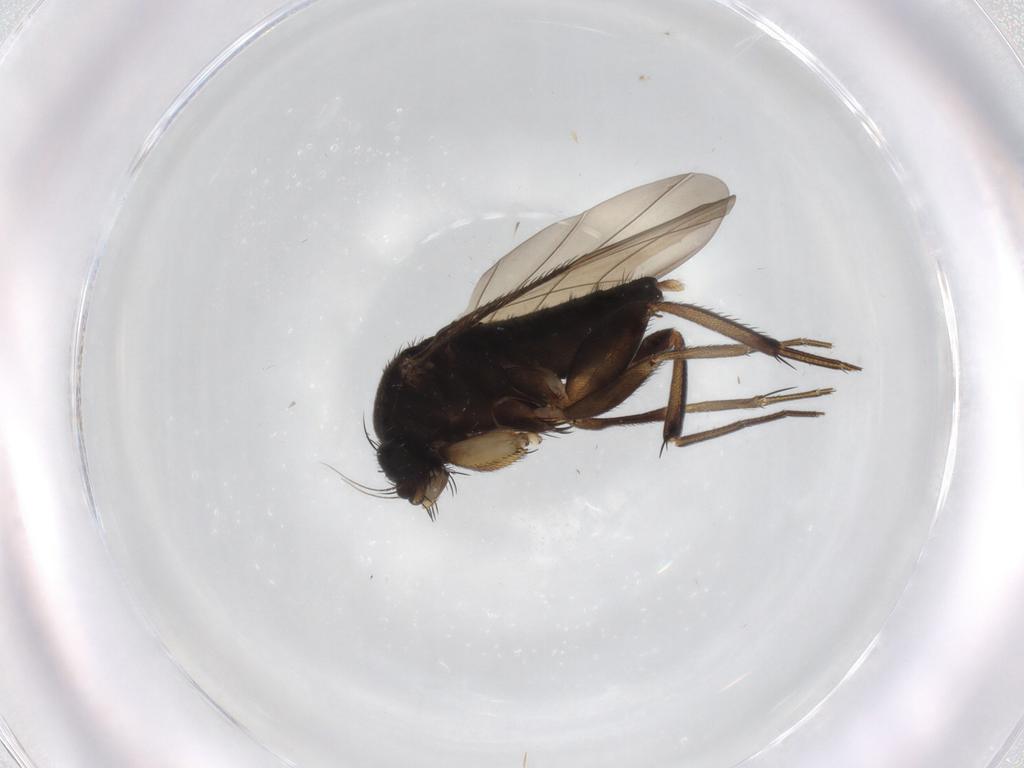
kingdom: Animalia
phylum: Arthropoda
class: Insecta
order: Diptera
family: Phoridae
